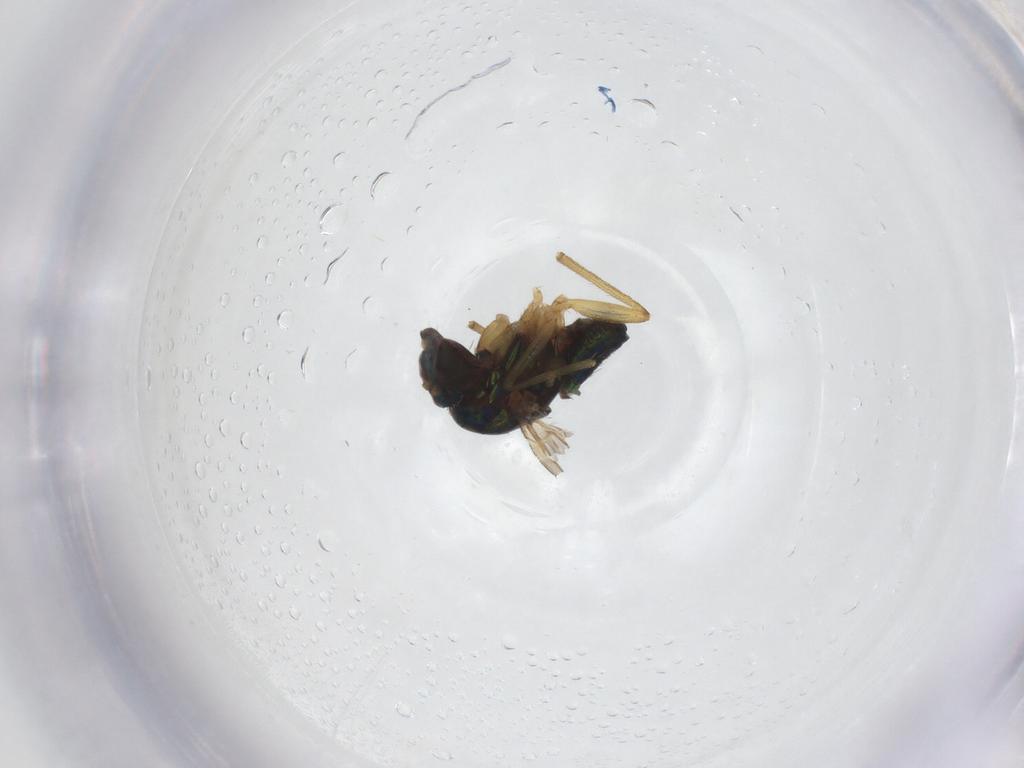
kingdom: Animalia
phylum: Arthropoda
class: Insecta
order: Diptera
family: Dolichopodidae
